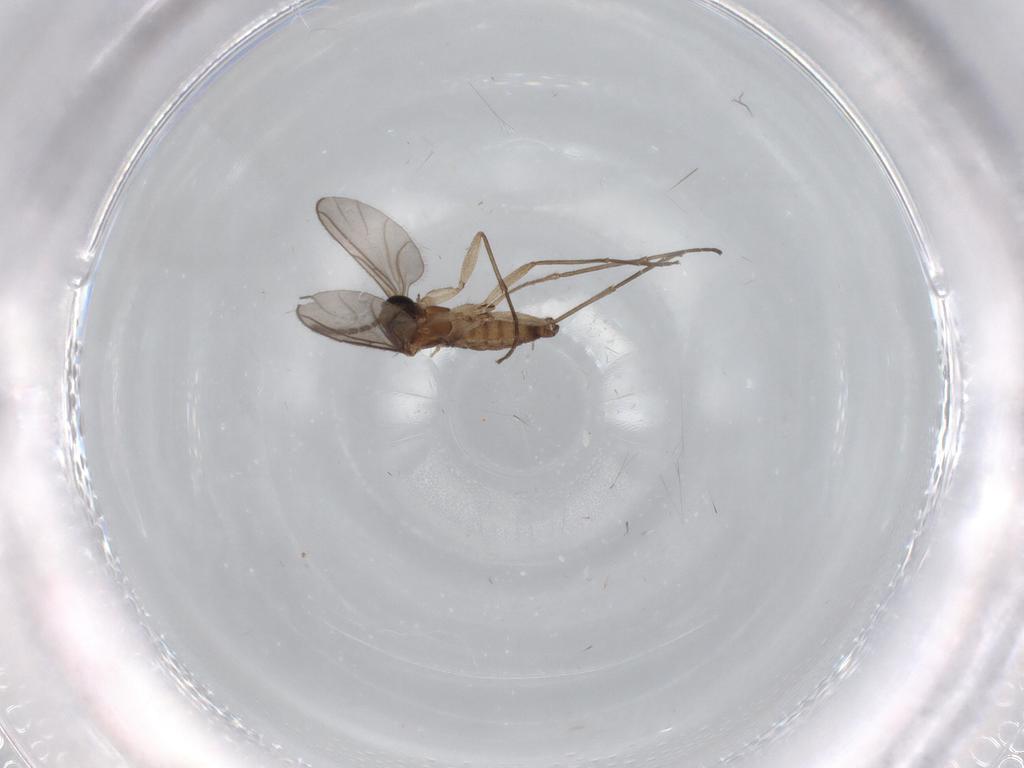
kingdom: Animalia
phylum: Arthropoda
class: Insecta
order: Diptera
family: Sciaridae
